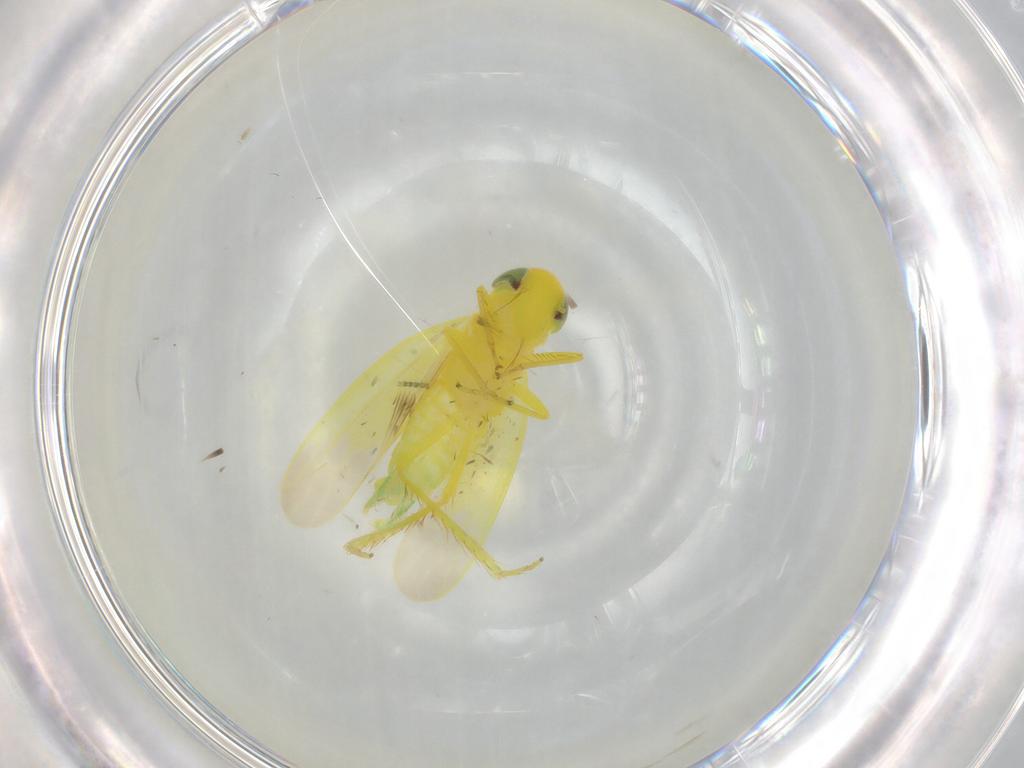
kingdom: Animalia
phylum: Arthropoda
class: Insecta
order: Hemiptera
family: Cicadellidae
